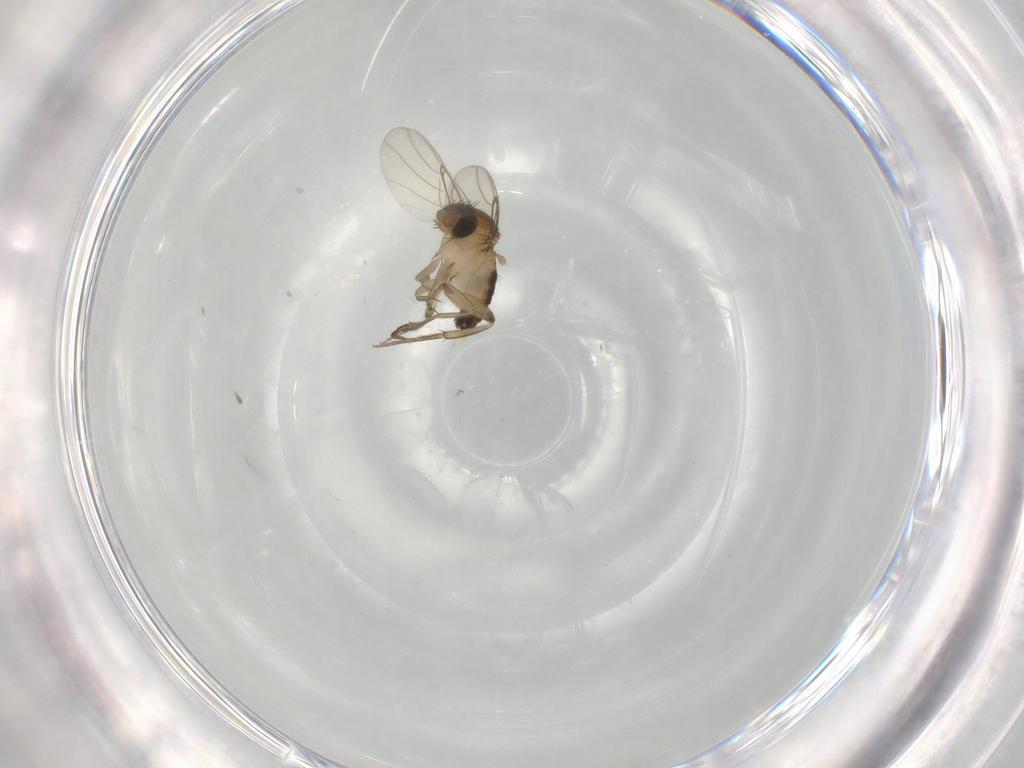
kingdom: Animalia
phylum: Arthropoda
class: Insecta
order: Diptera
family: Phoridae
